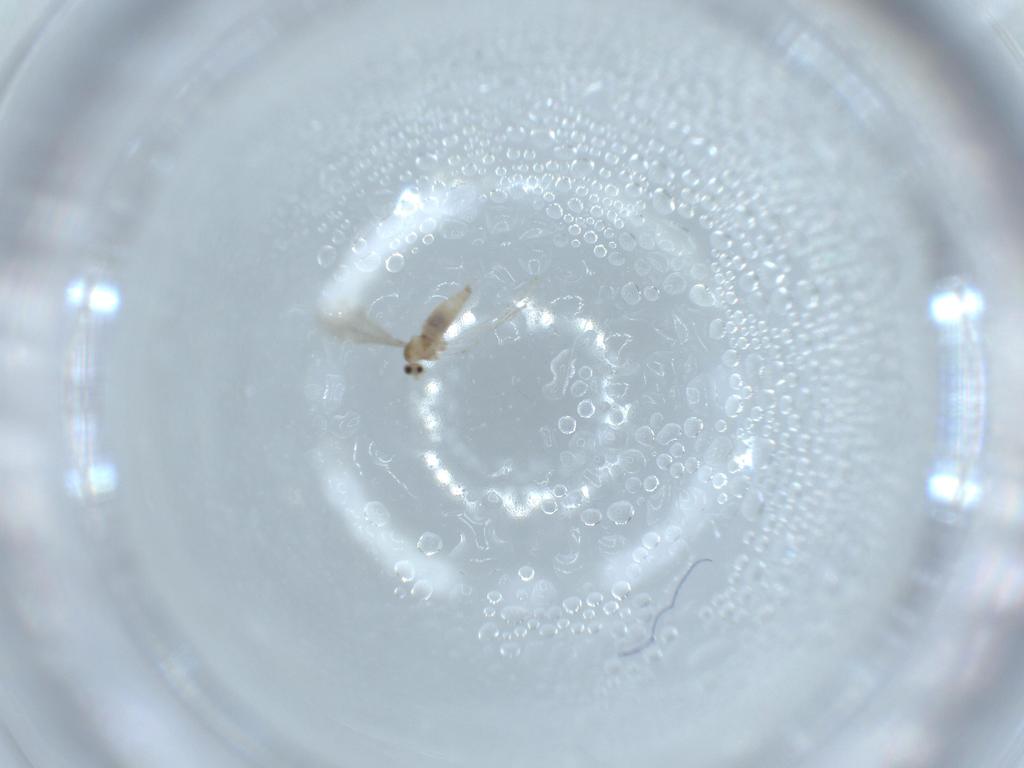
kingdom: Animalia
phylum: Arthropoda
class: Insecta
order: Diptera
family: Cecidomyiidae
